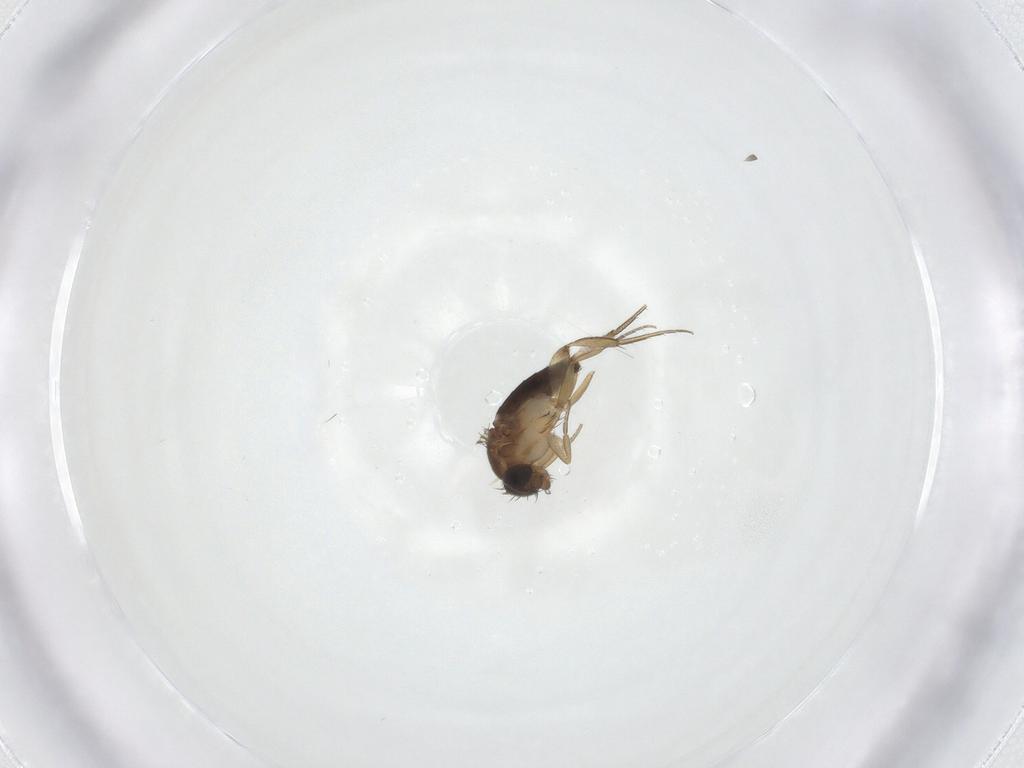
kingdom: Animalia
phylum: Arthropoda
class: Insecta
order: Diptera
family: Phoridae
